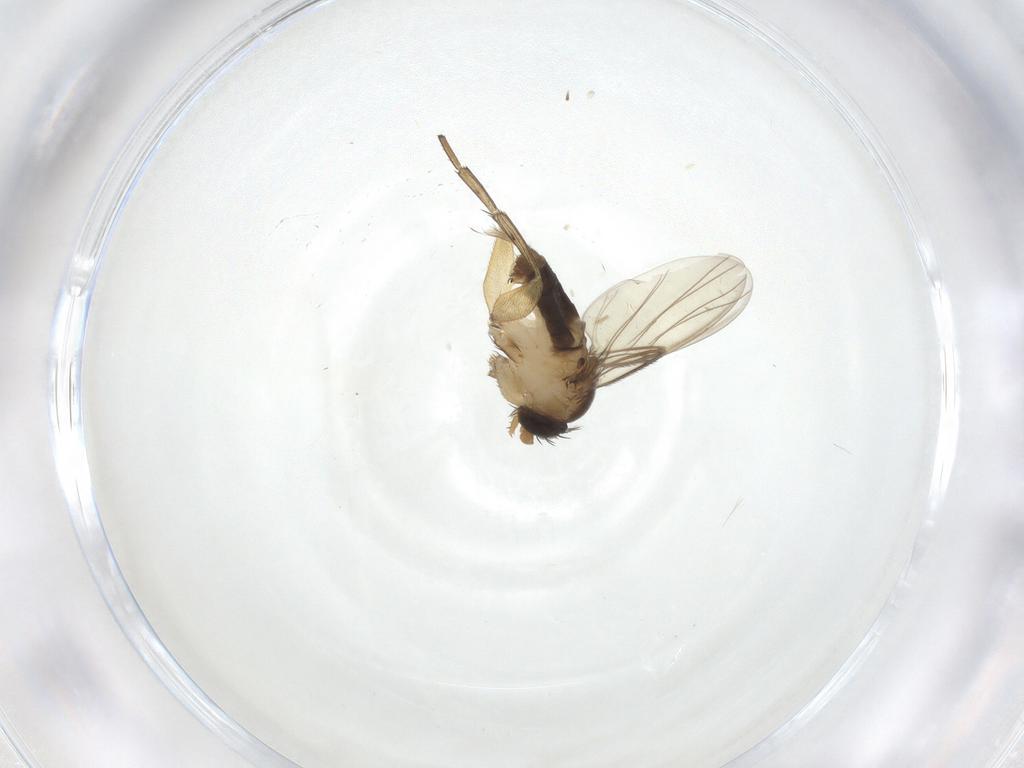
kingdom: Animalia
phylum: Arthropoda
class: Insecta
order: Diptera
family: Phoridae
